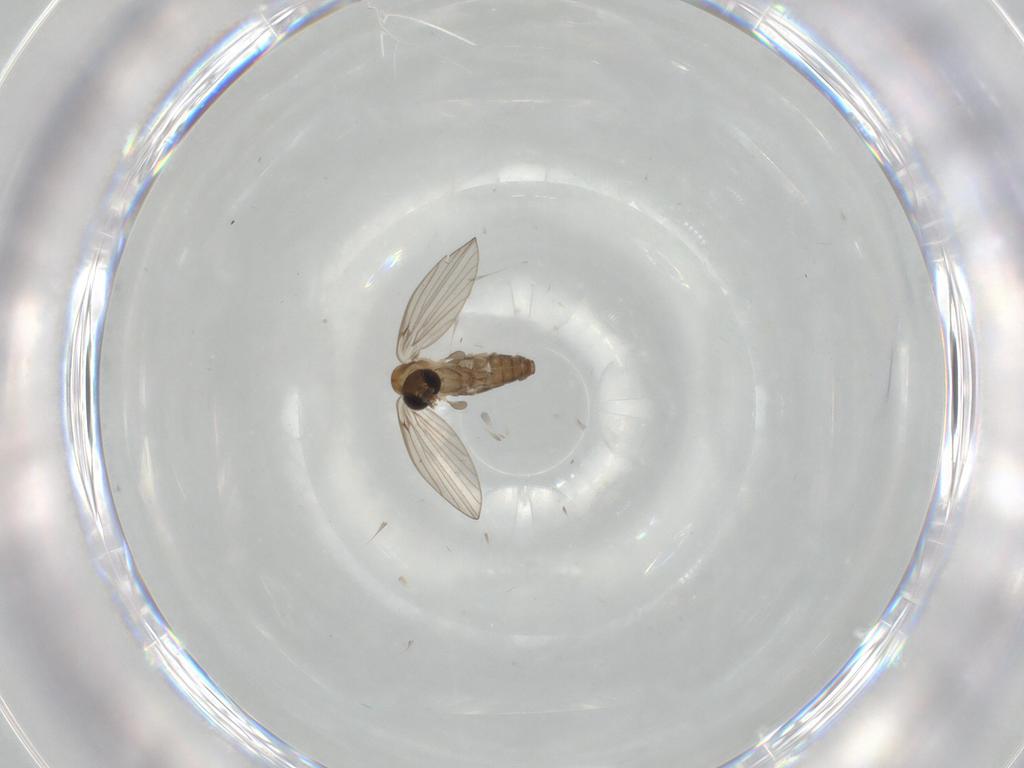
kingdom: Animalia
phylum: Arthropoda
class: Insecta
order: Diptera
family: Psychodidae
